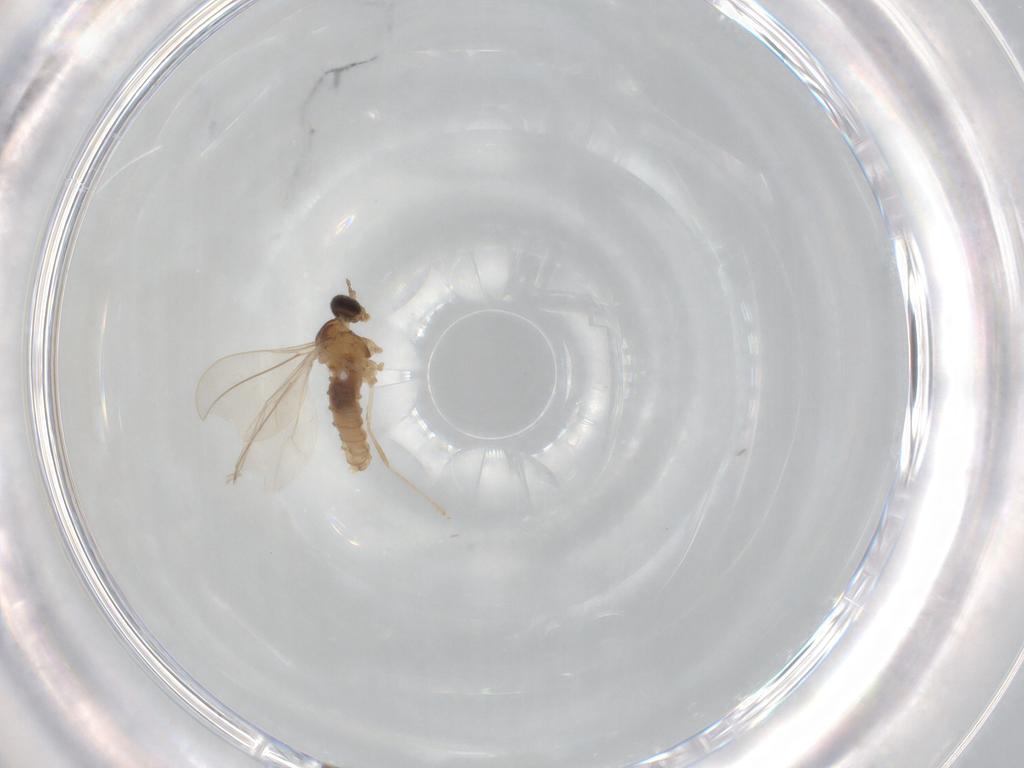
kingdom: Animalia
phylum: Arthropoda
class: Insecta
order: Diptera
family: Cecidomyiidae
